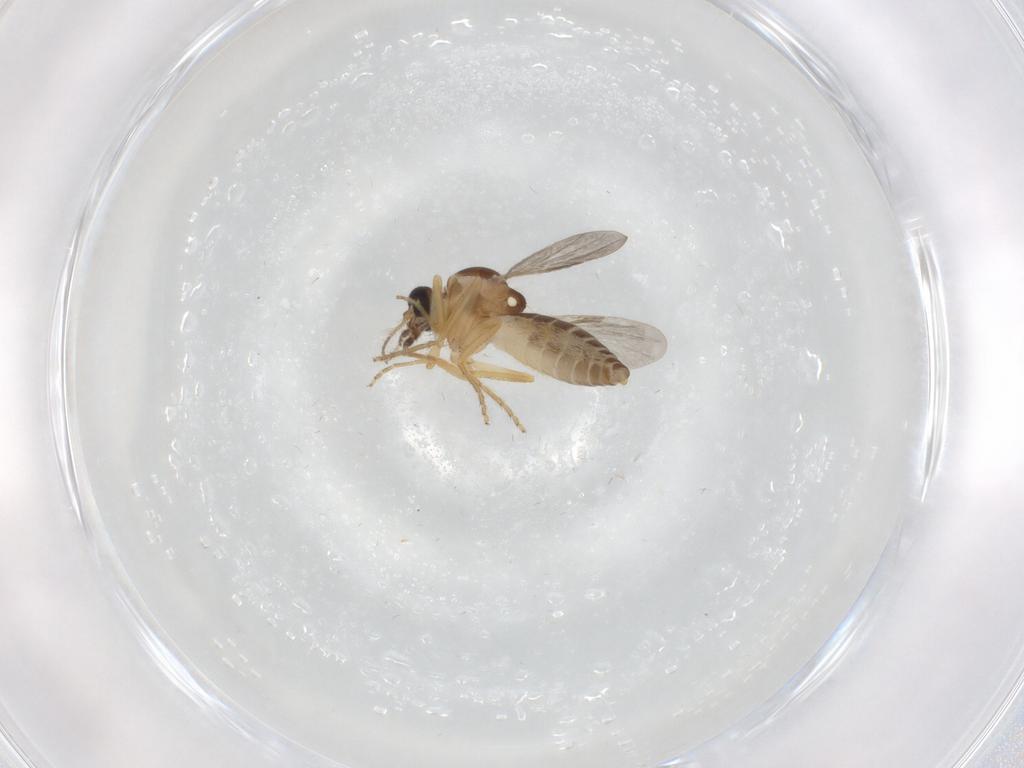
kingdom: Animalia
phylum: Arthropoda
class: Insecta
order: Diptera
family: Ceratopogonidae
